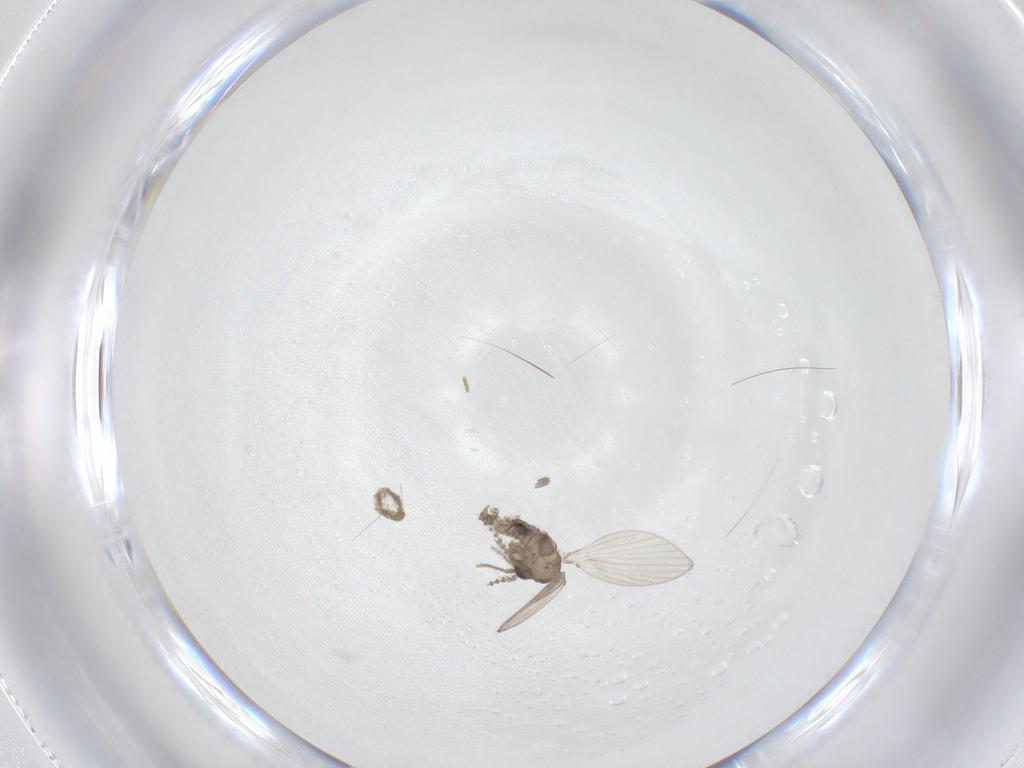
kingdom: Animalia
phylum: Arthropoda
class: Insecta
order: Diptera
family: Psychodidae
